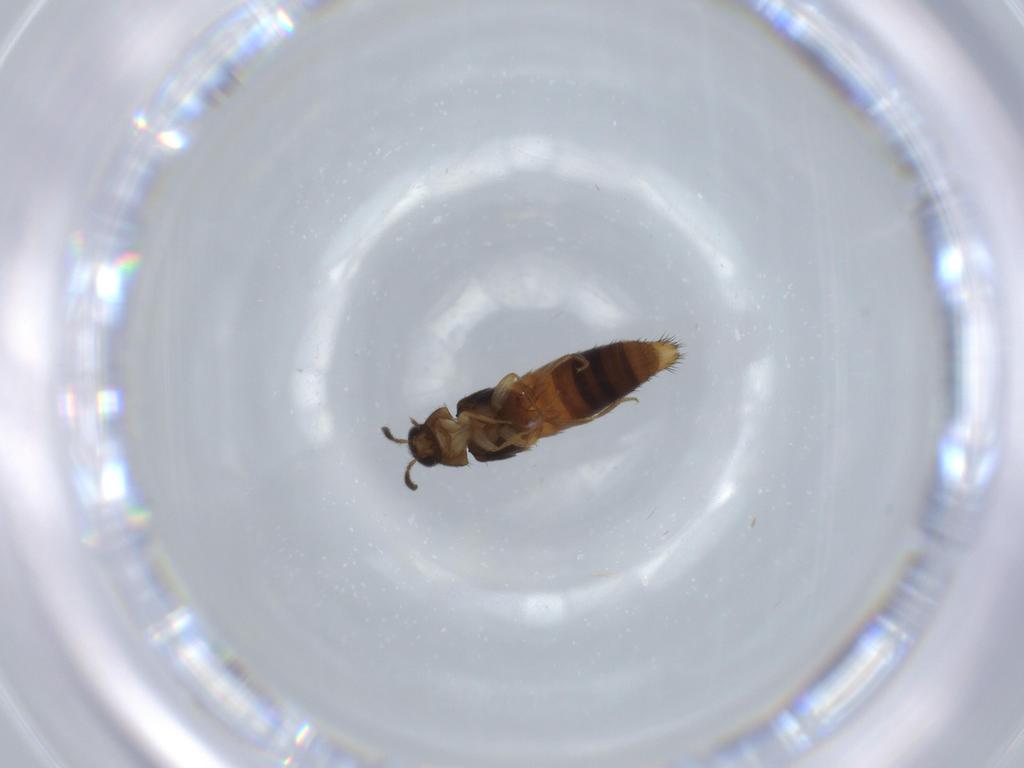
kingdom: Animalia
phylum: Arthropoda
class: Insecta
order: Coleoptera
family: Staphylinidae
